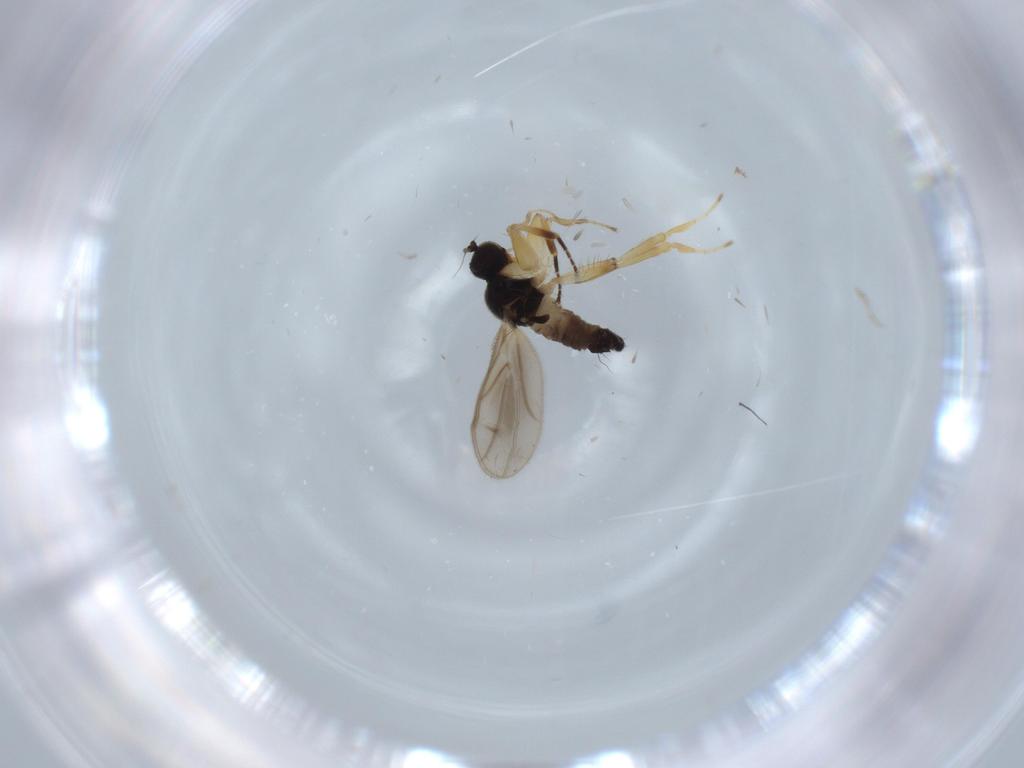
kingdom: Animalia
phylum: Arthropoda
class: Insecta
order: Diptera
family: Hybotidae
